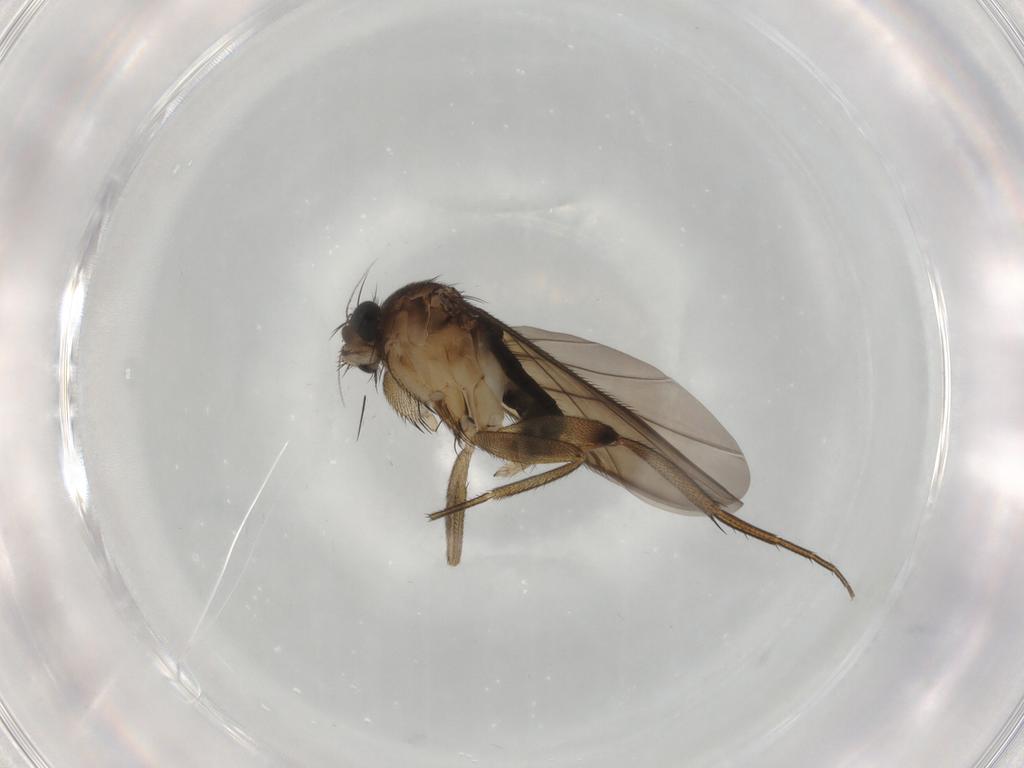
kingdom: Animalia
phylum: Arthropoda
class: Insecta
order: Diptera
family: Phoridae
